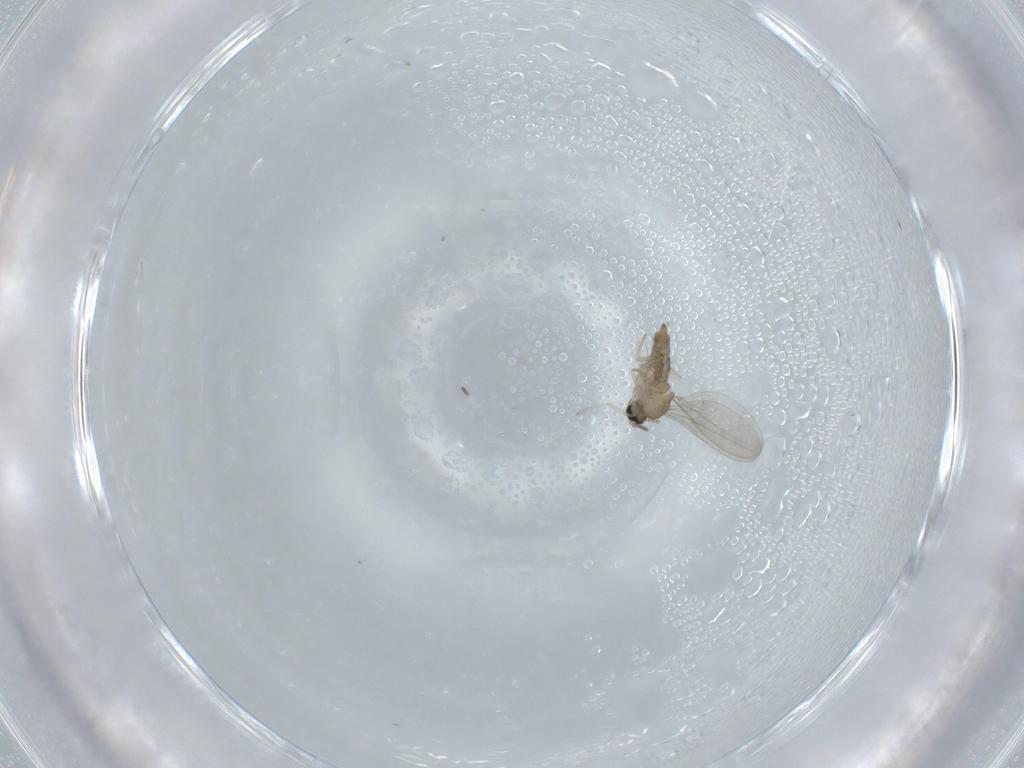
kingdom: Animalia
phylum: Arthropoda
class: Insecta
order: Diptera
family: Cecidomyiidae
